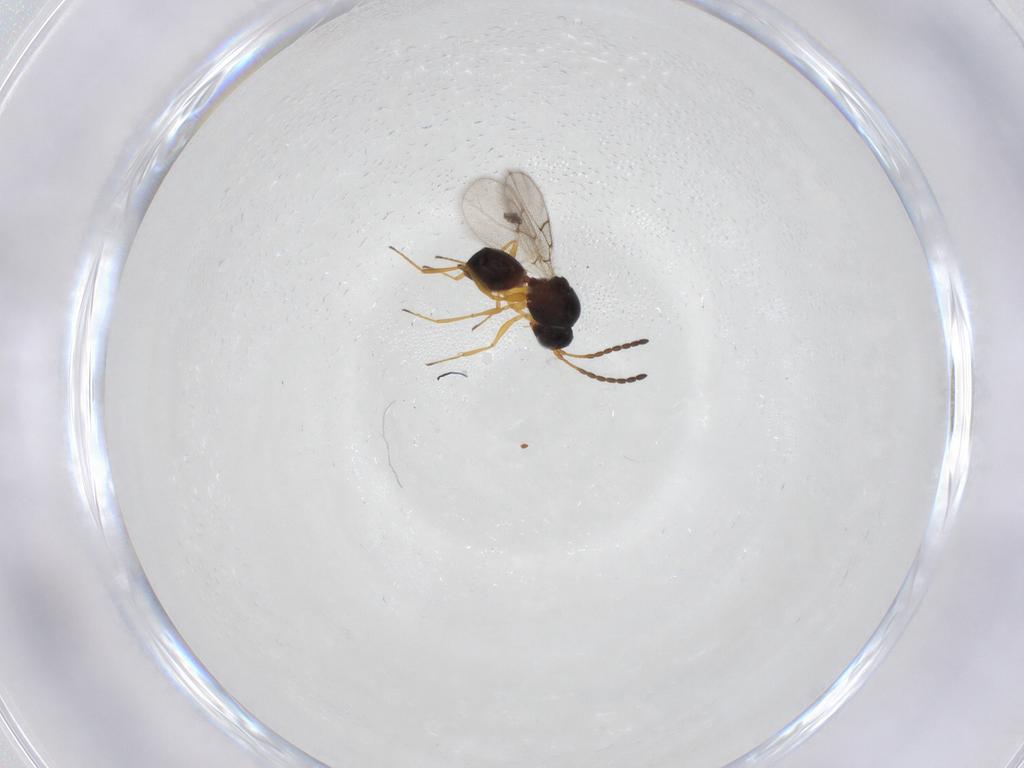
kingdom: Animalia
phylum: Arthropoda
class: Insecta
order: Hymenoptera
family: Figitidae
